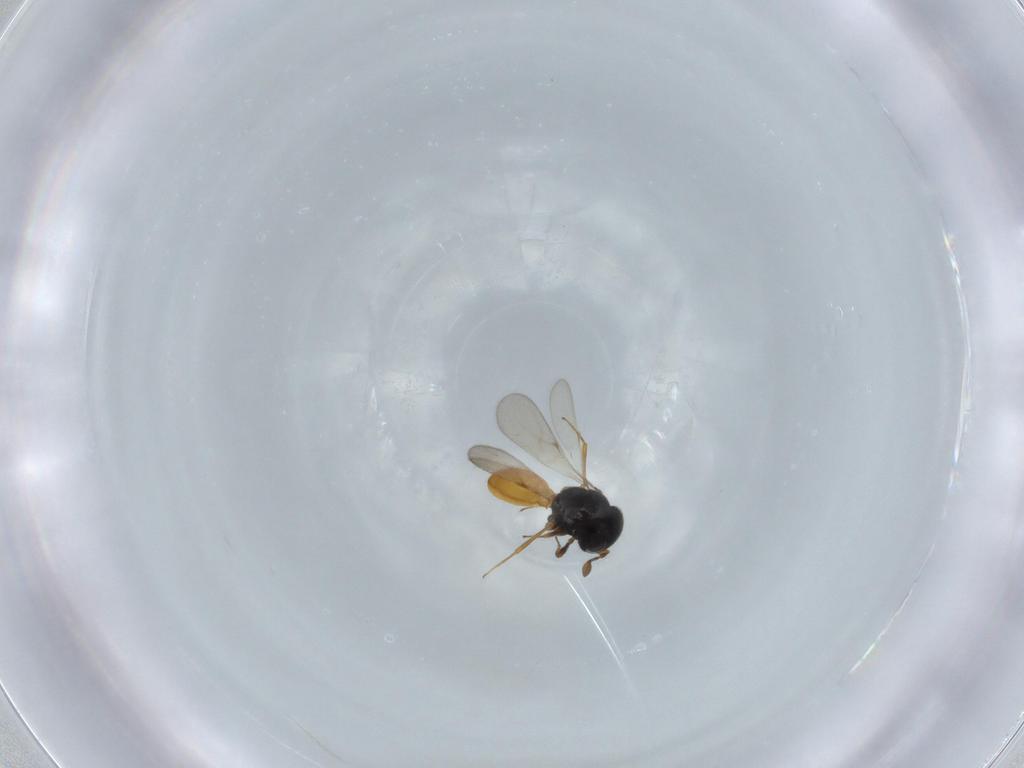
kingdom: Animalia
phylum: Arthropoda
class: Insecta
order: Hymenoptera
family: Scelionidae
